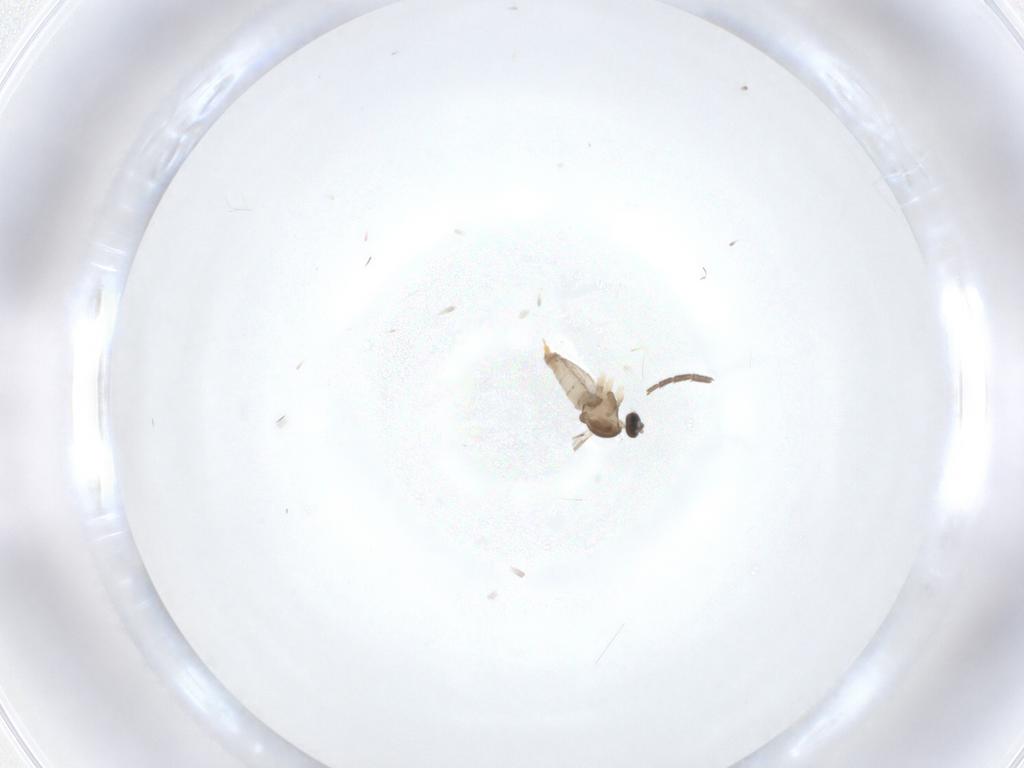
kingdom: Animalia
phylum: Arthropoda
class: Insecta
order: Diptera
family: Cecidomyiidae
